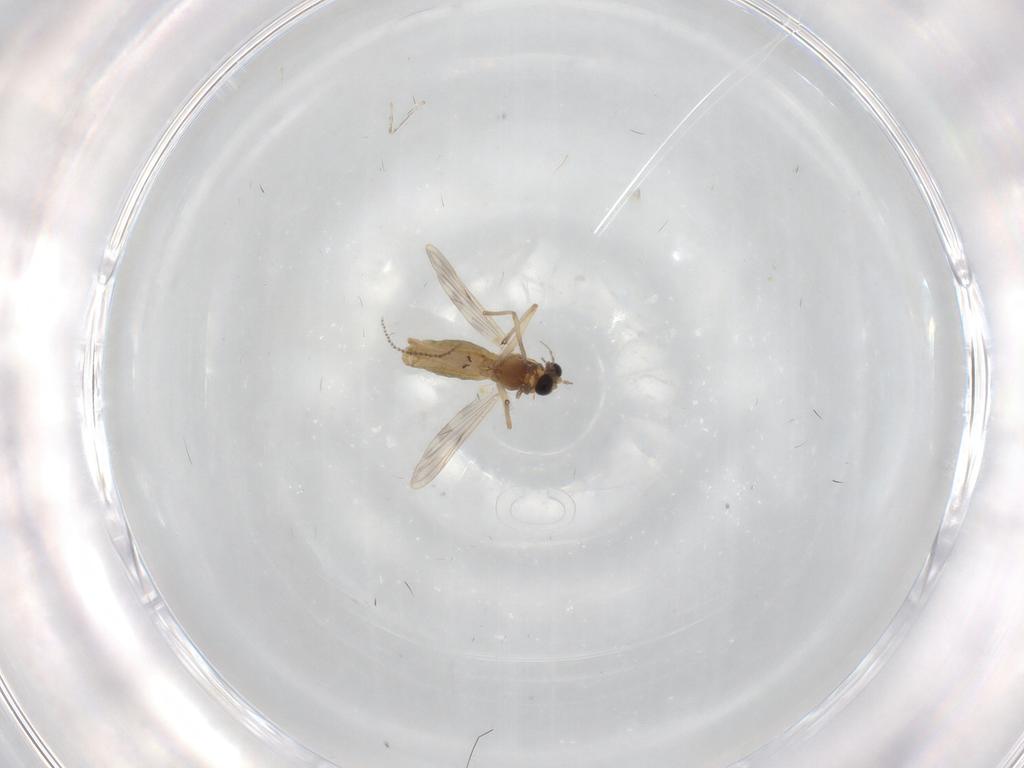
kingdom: Animalia
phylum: Arthropoda
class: Insecta
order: Diptera
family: Chironomidae
